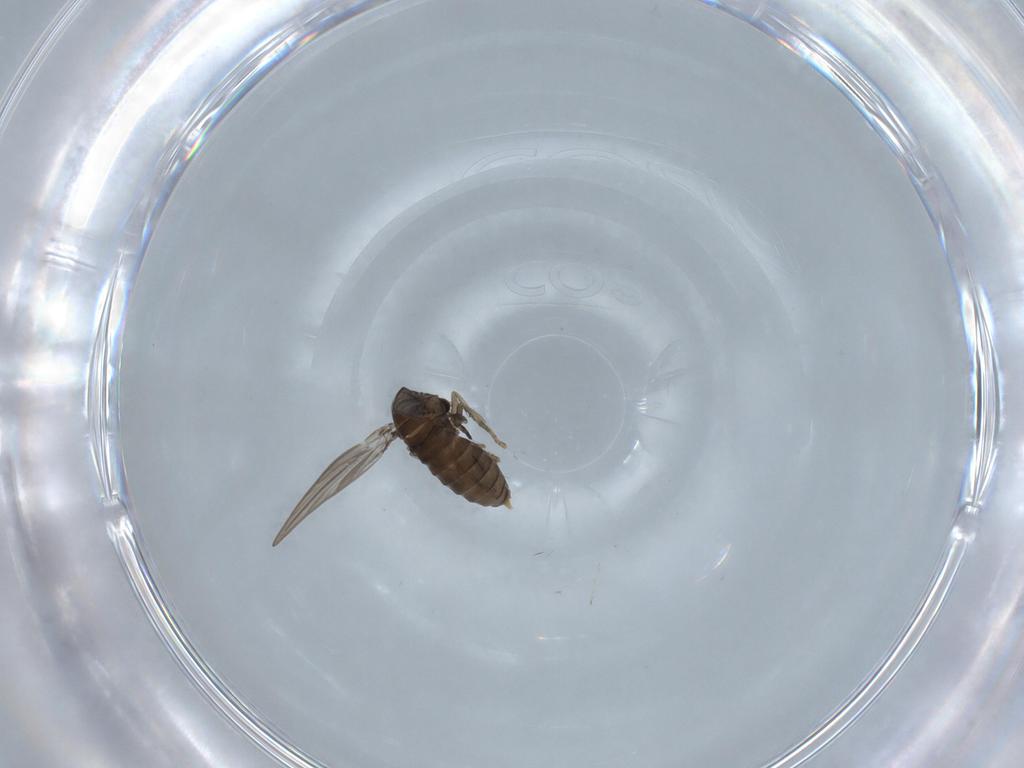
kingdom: Animalia
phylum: Arthropoda
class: Insecta
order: Diptera
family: Psychodidae
